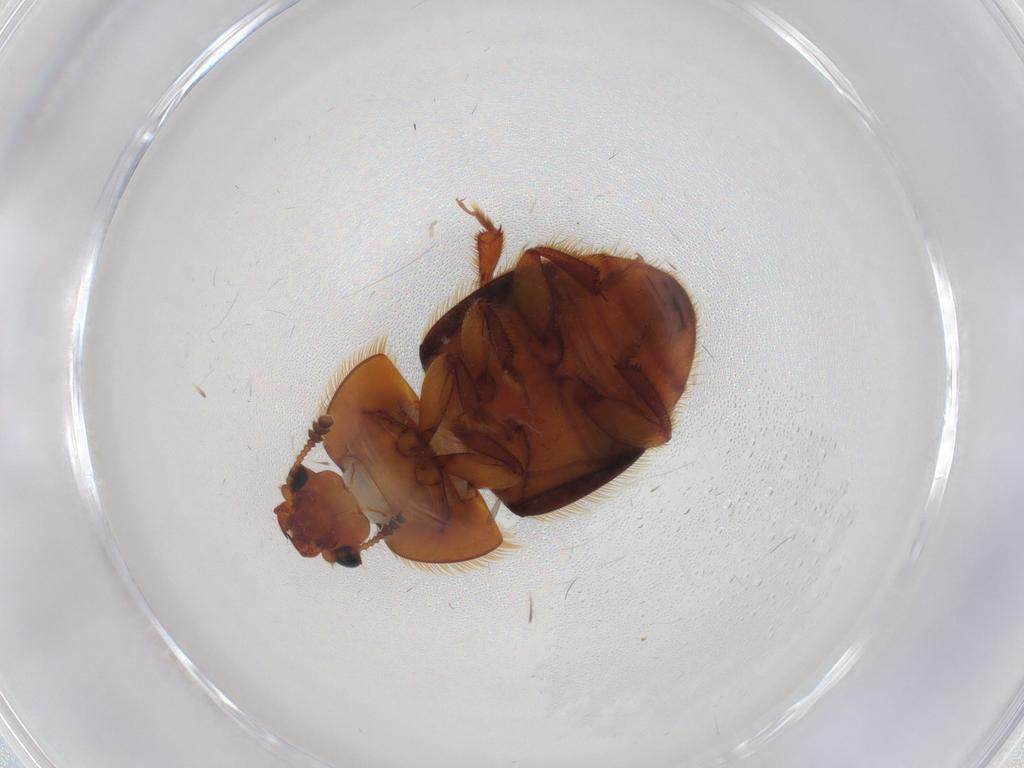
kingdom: Animalia
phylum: Arthropoda
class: Insecta
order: Coleoptera
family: Nitidulidae
